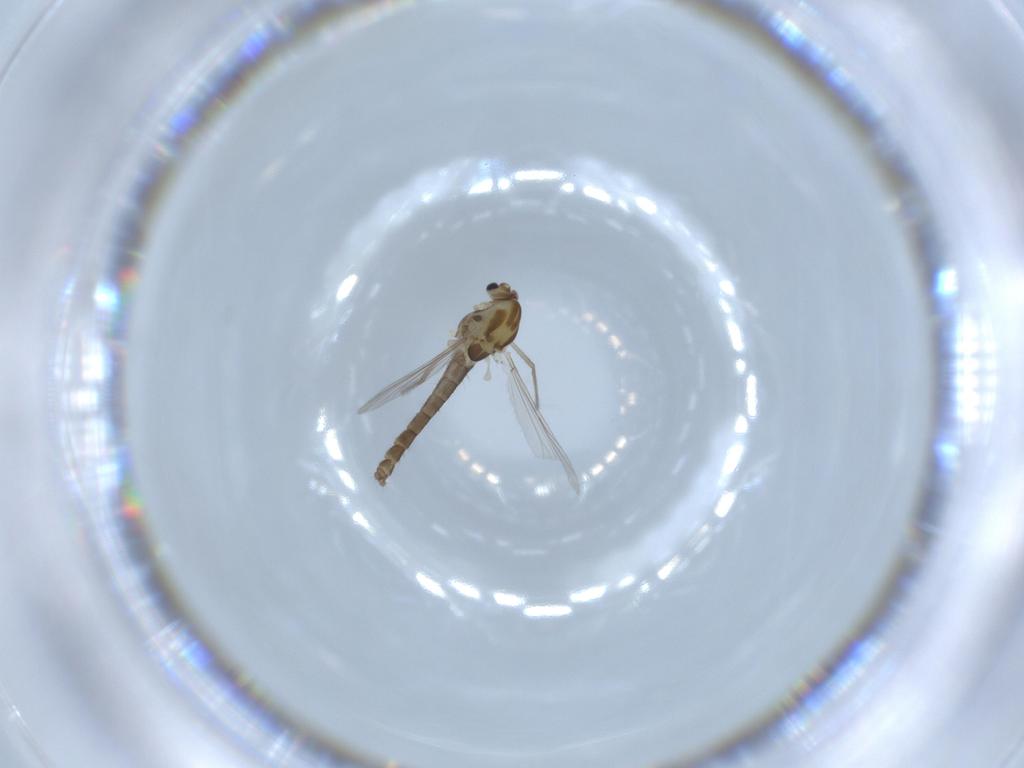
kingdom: Animalia
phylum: Arthropoda
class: Insecta
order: Diptera
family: Chironomidae
